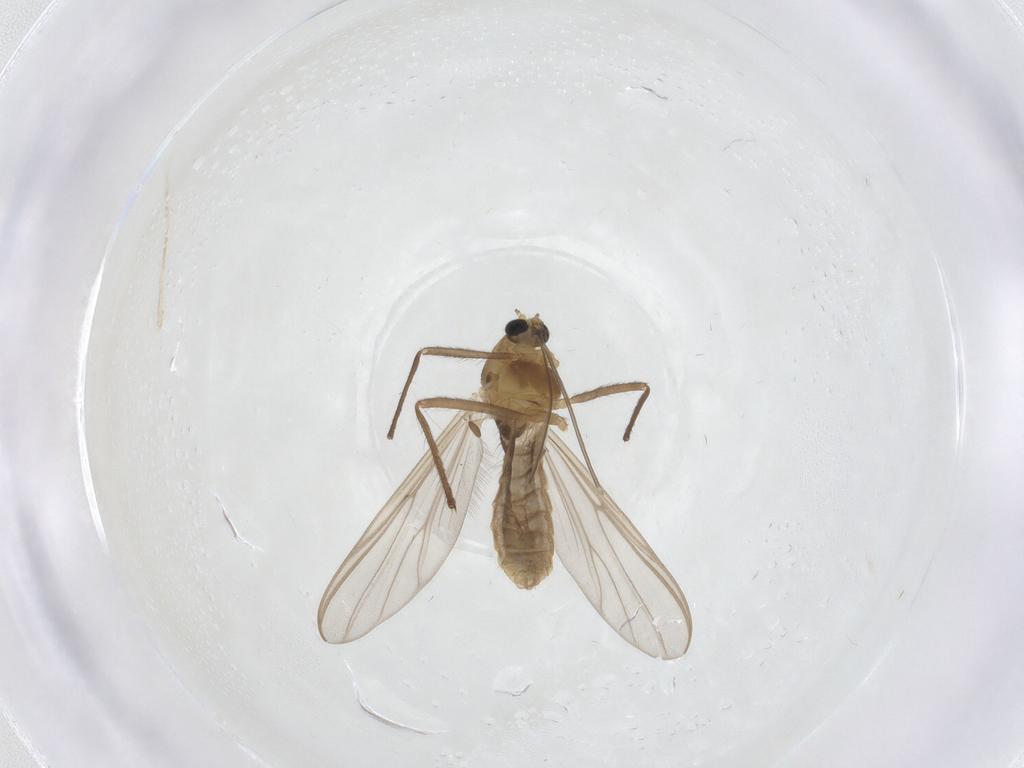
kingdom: Animalia
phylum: Arthropoda
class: Insecta
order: Diptera
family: Chironomidae
